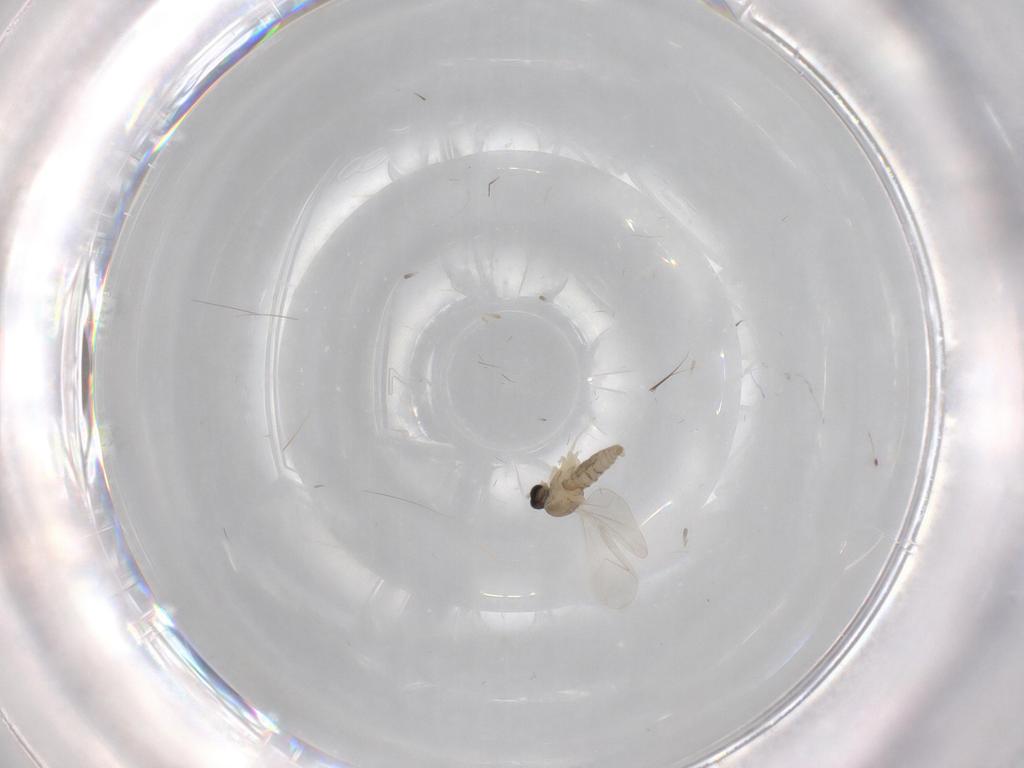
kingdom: Animalia
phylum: Arthropoda
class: Insecta
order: Diptera
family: Cecidomyiidae
